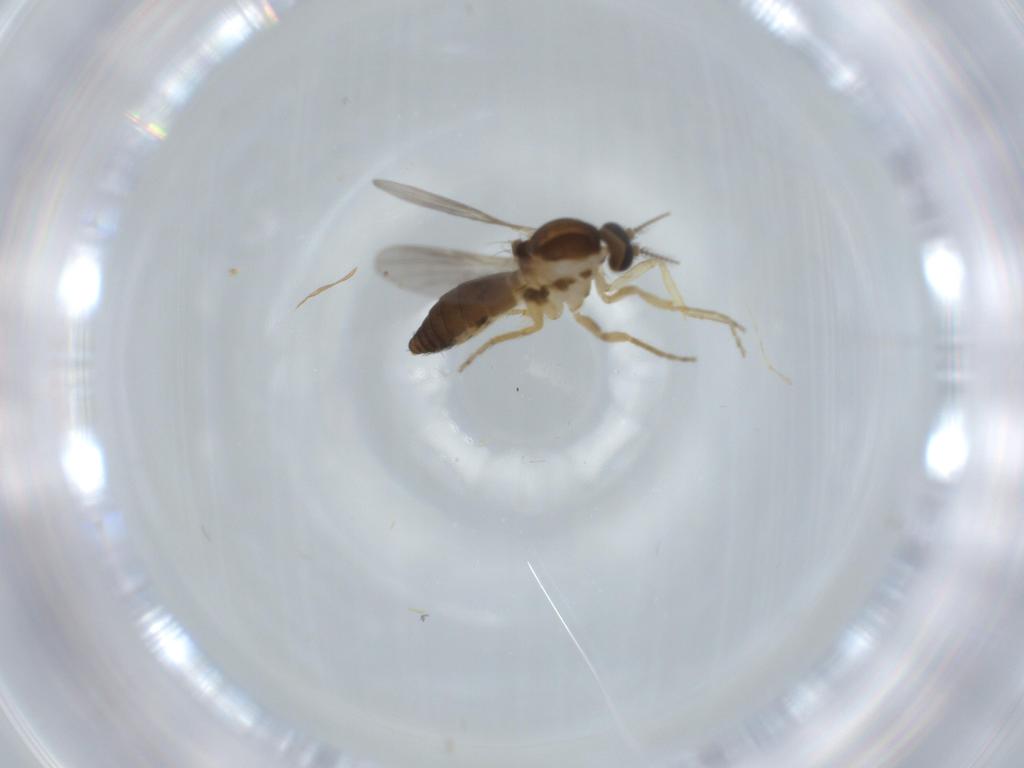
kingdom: Animalia
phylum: Arthropoda
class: Insecta
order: Diptera
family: Ceratopogonidae
